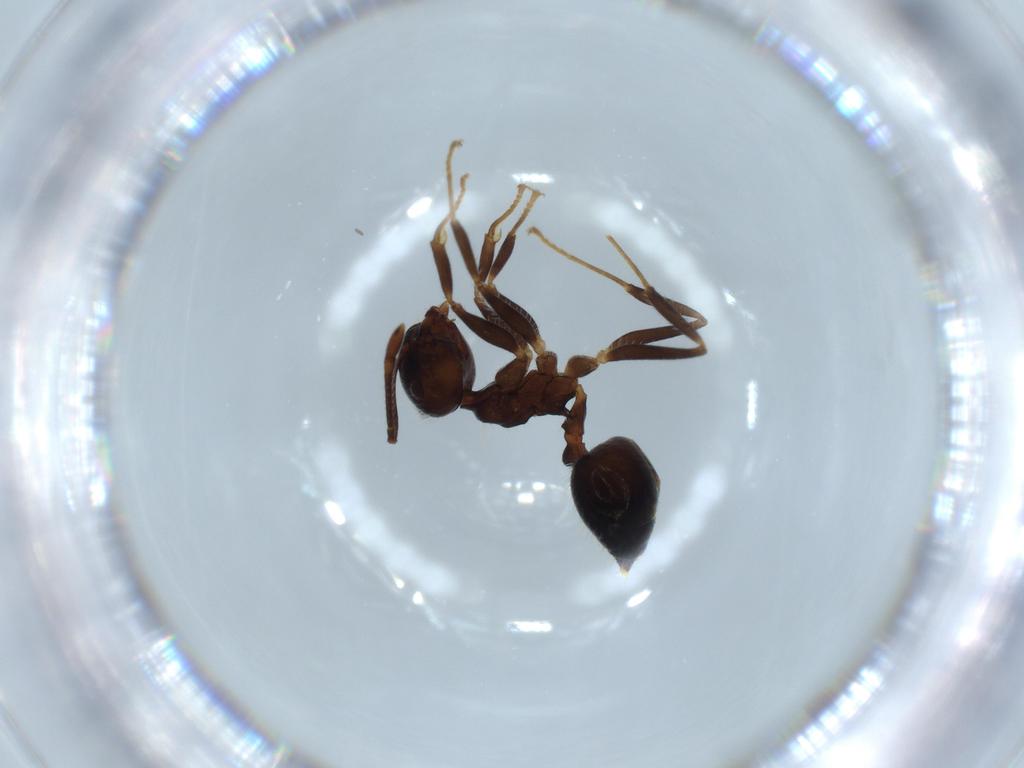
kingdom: Animalia
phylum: Arthropoda
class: Insecta
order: Hymenoptera
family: Formicidae
